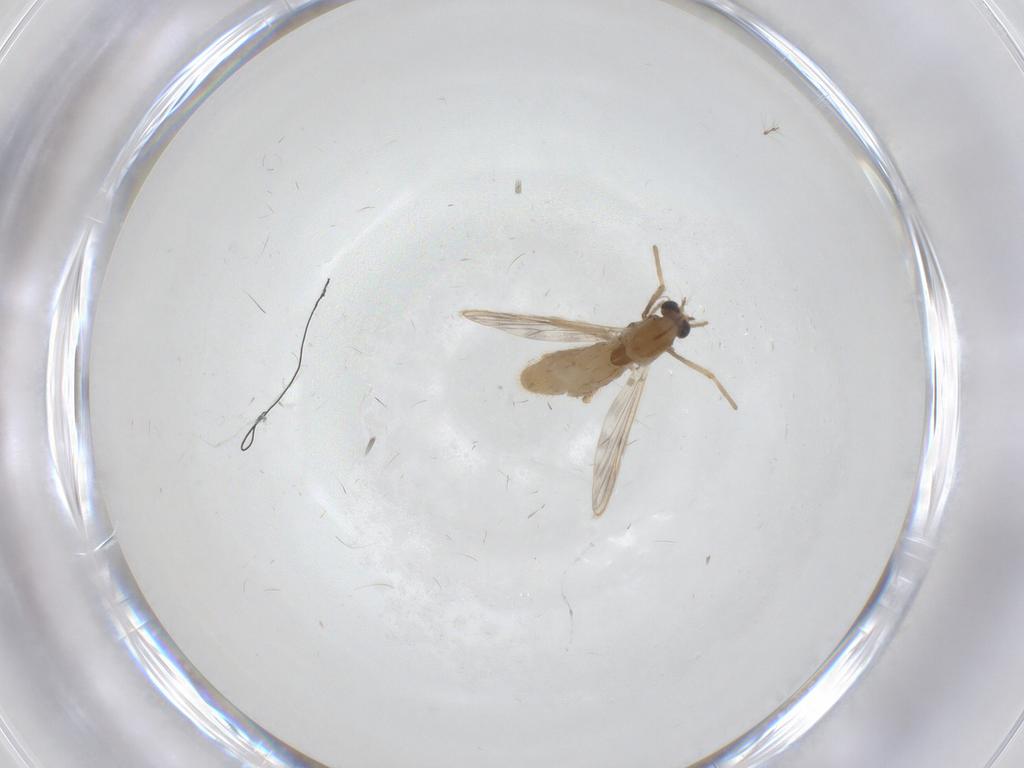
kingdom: Animalia
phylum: Arthropoda
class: Insecta
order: Diptera
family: Chironomidae
